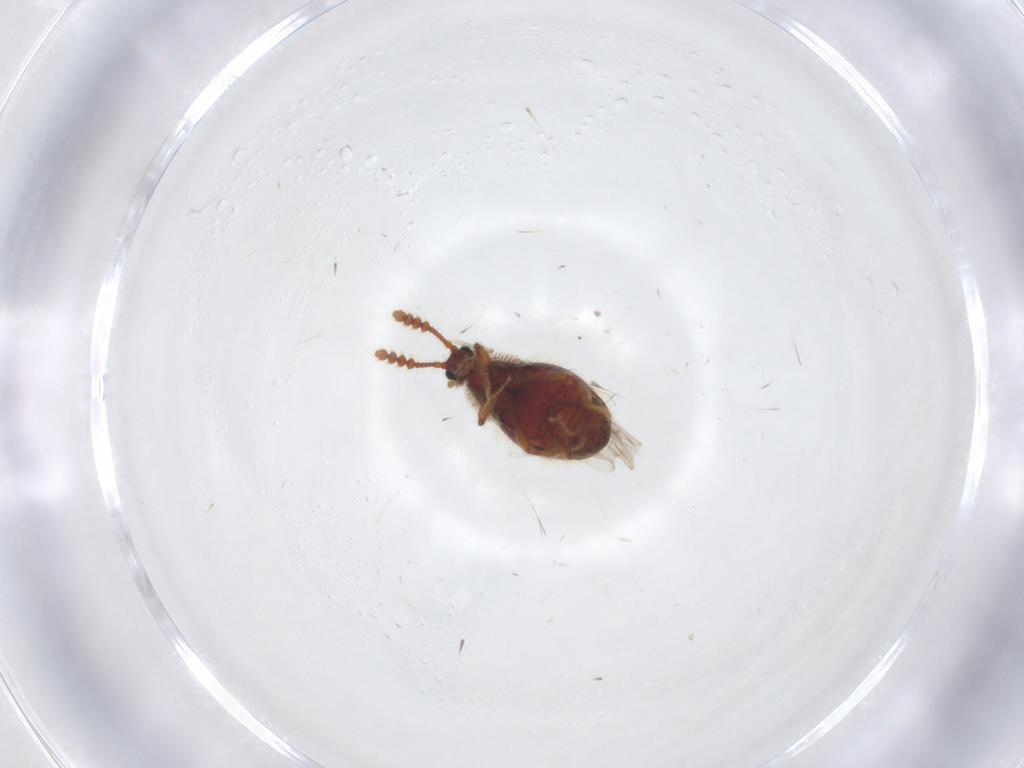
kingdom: Animalia
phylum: Arthropoda
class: Insecta
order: Coleoptera
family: Staphylinidae
